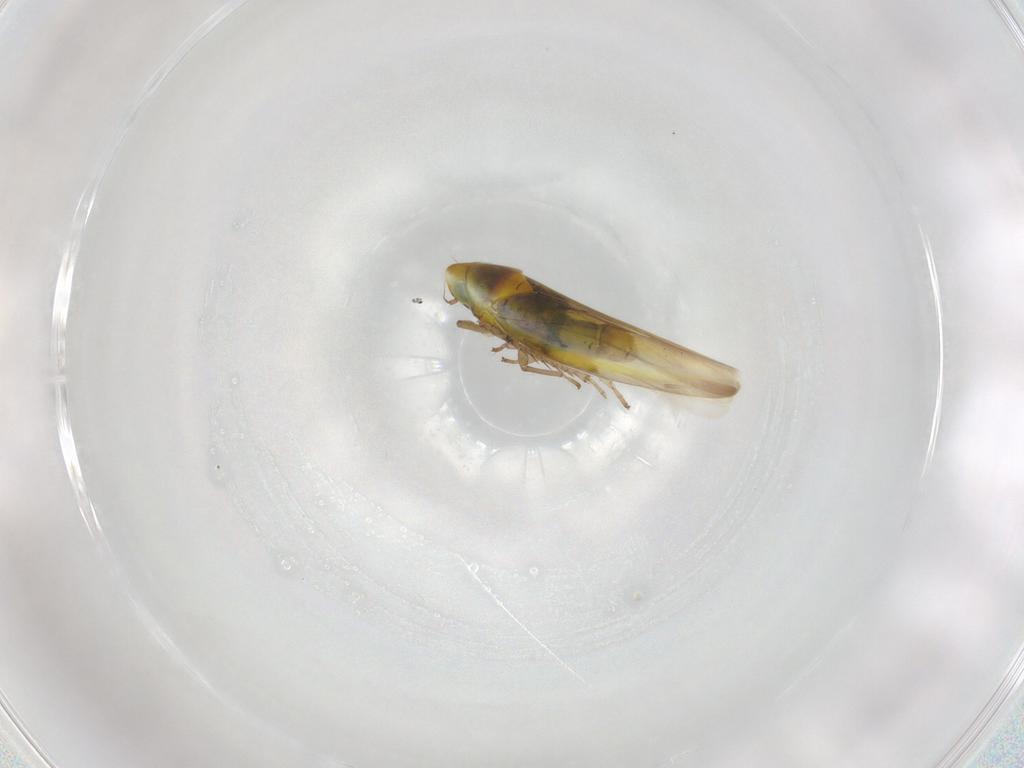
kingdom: Animalia
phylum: Arthropoda
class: Insecta
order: Hemiptera
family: Cicadellidae
